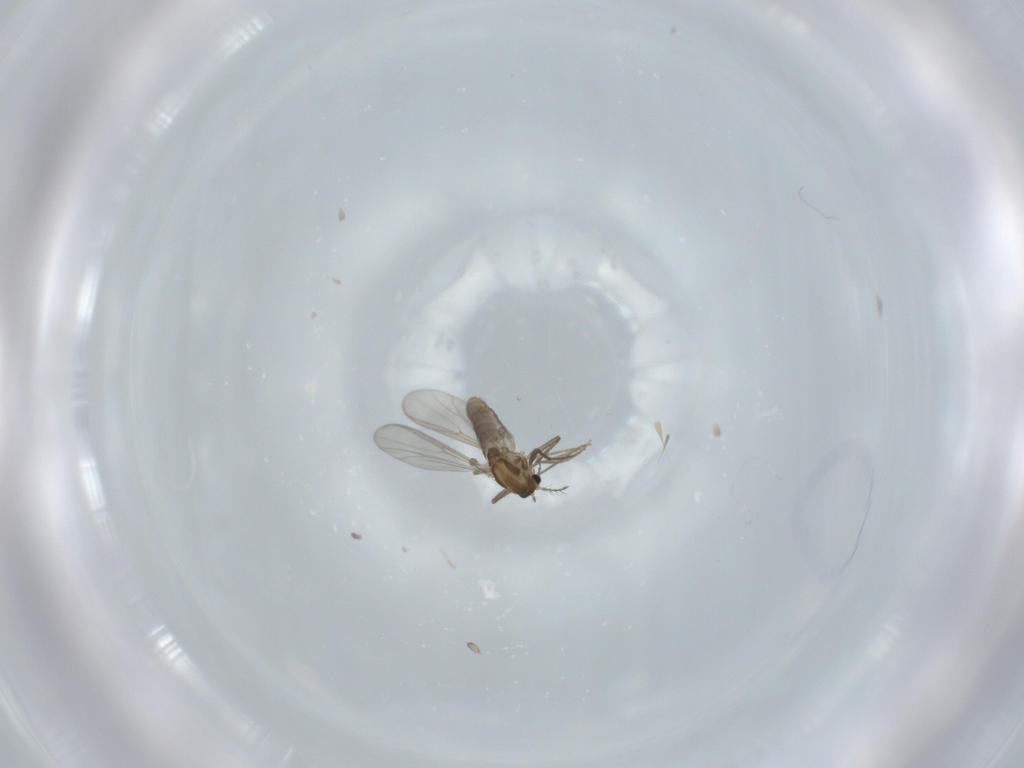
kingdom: Animalia
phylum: Arthropoda
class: Insecta
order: Diptera
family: Chironomidae
